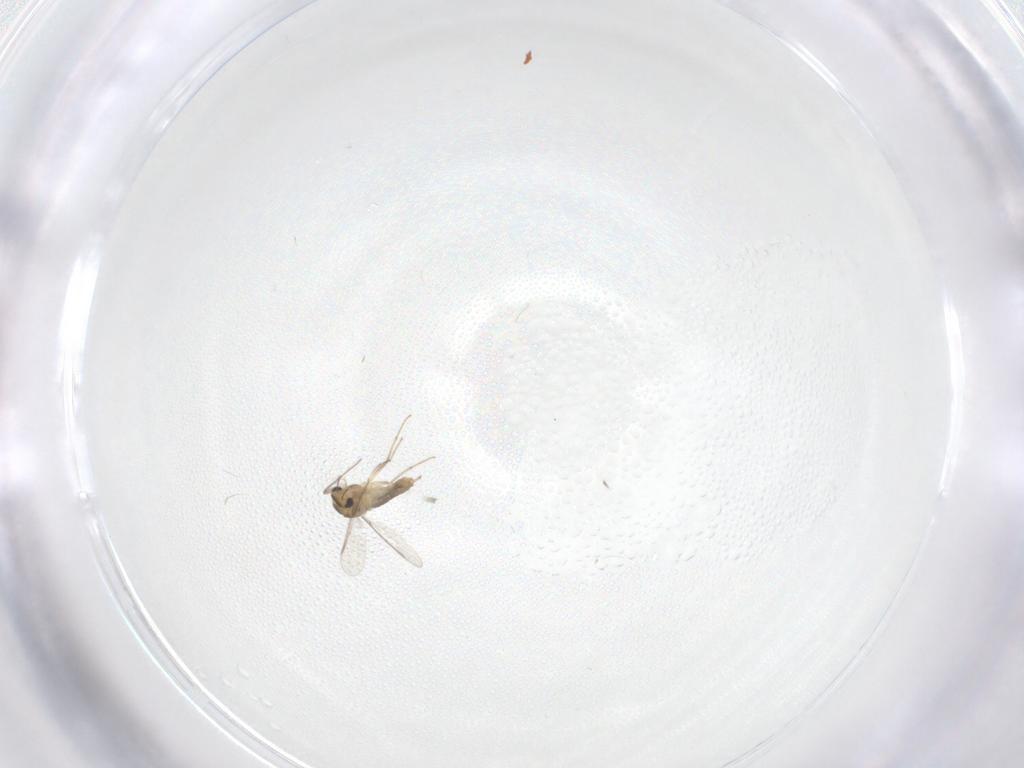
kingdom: Animalia
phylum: Arthropoda
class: Insecta
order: Diptera
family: Chironomidae
